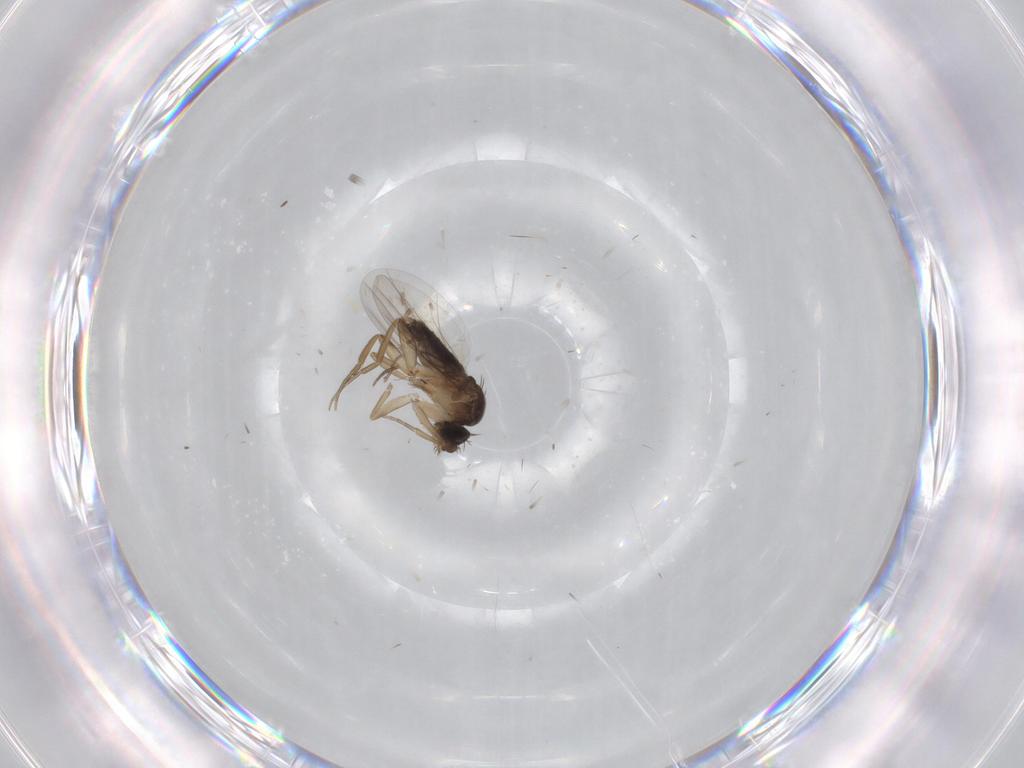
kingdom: Animalia
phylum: Arthropoda
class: Insecta
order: Diptera
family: Phoridae
